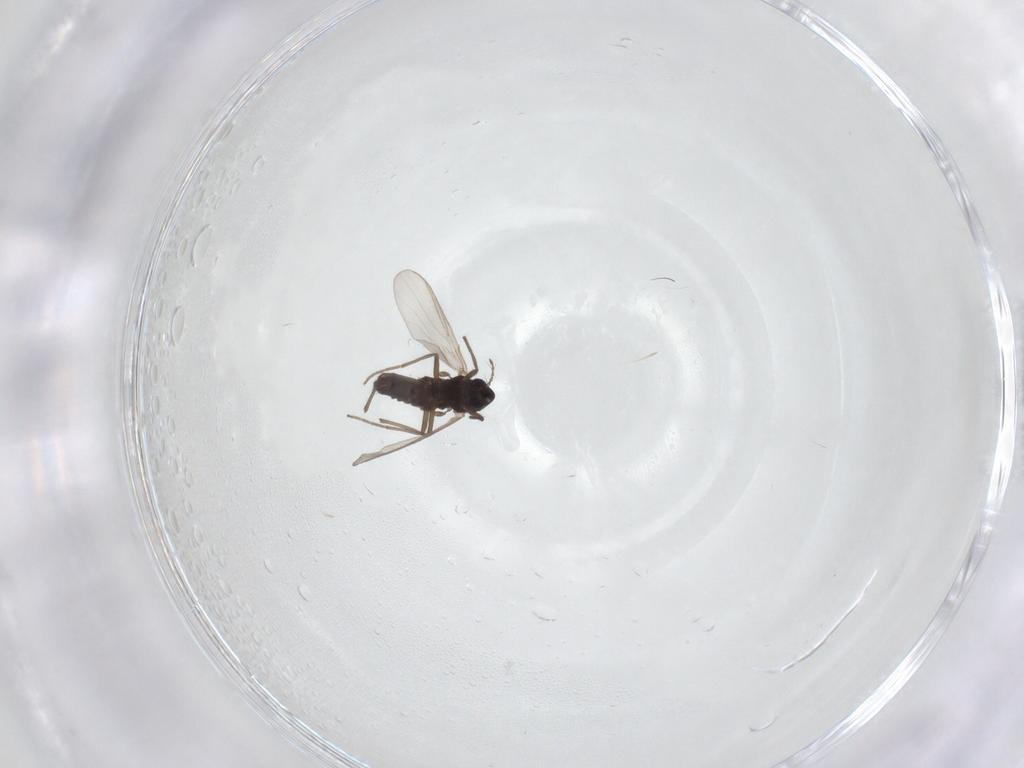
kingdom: Animalia
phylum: Arthropoda
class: Insecta
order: Diptera
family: Chironomidae
